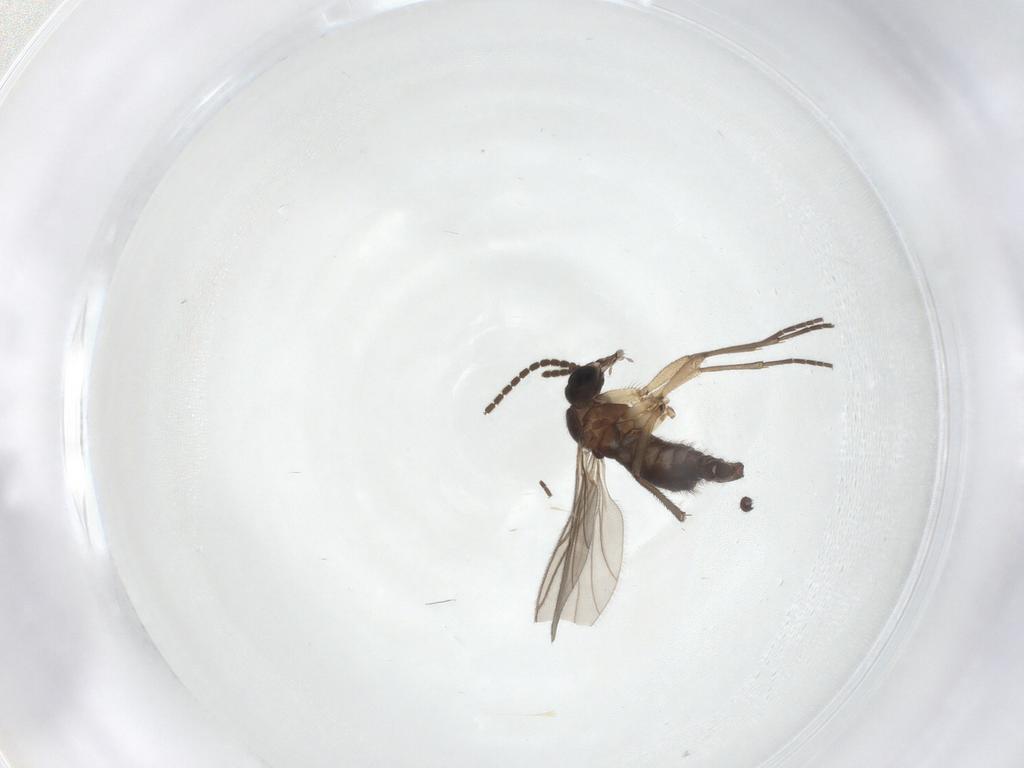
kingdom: Animalia
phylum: Arthropoda
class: Insecta
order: Diptera
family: Sciaridae
